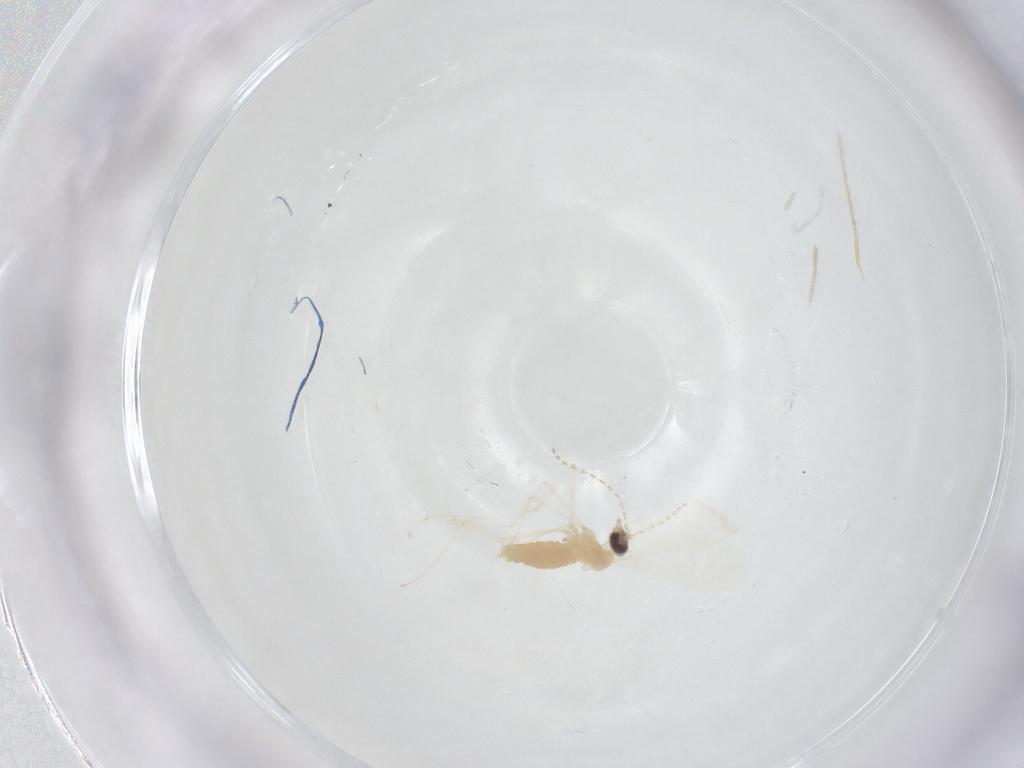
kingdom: Animalia
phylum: Arthropoda
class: Insecta
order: Diptera
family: Cecidomyiidae
